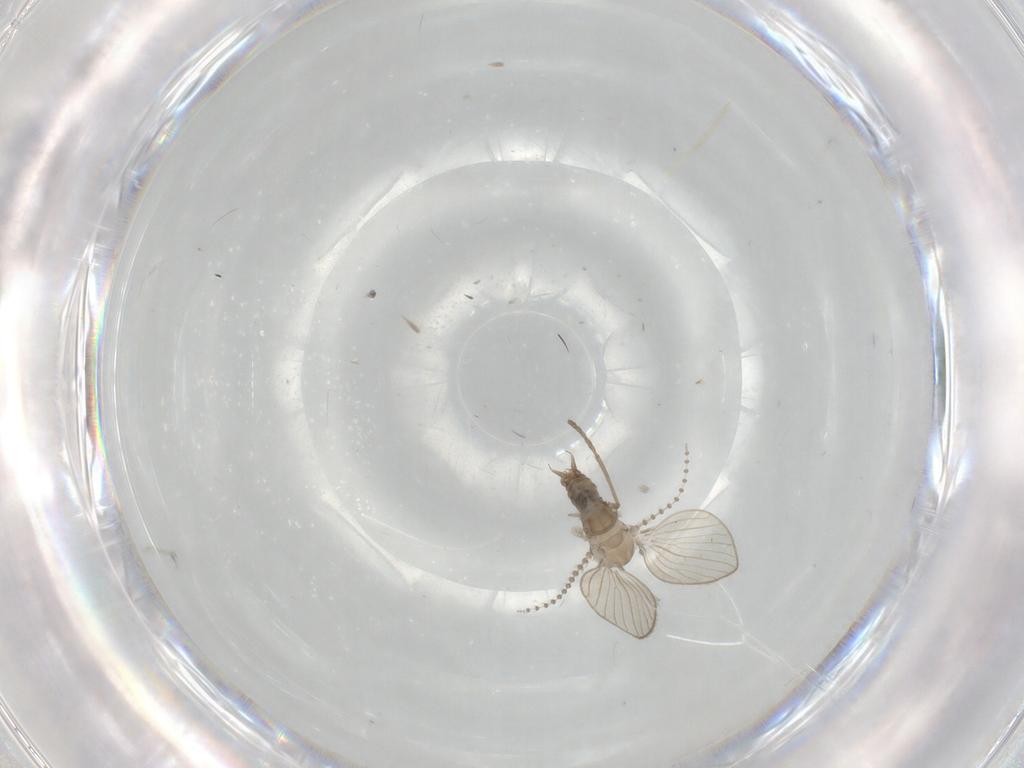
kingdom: Animalia
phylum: Arthropoda
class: Insecta
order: Diptera
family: Psychodidae
